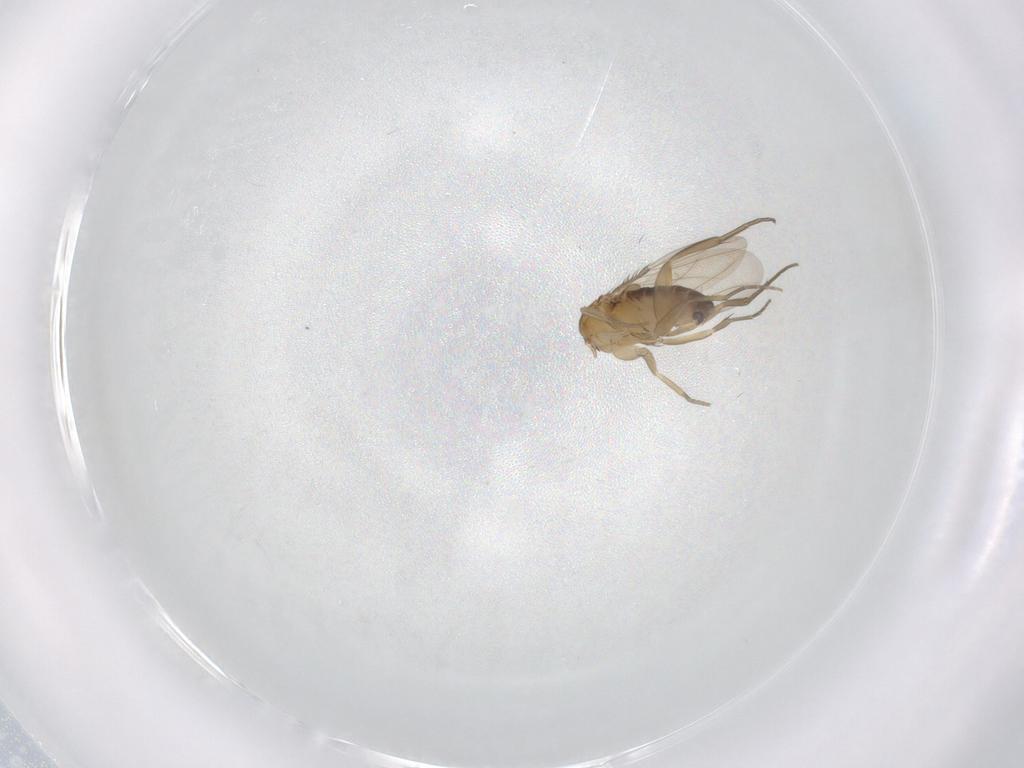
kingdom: Animalia
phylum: Arthropoda
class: Insecta
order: Diptera
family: Phoridae
